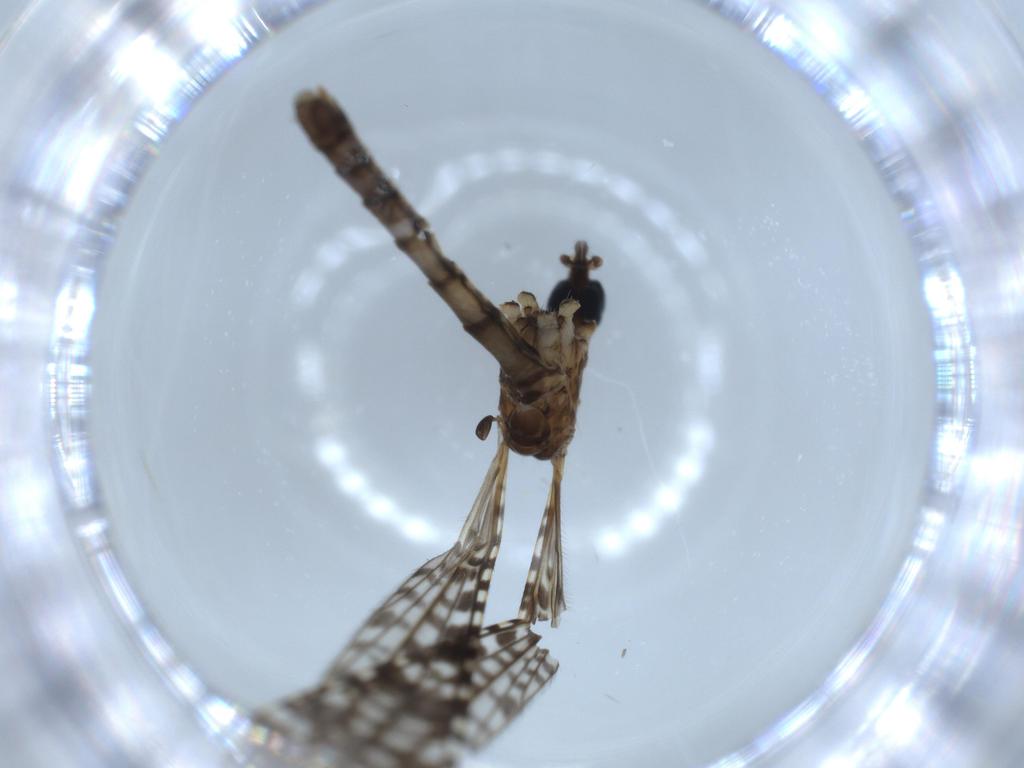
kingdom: Animalia
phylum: Arthropoda
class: Insecta
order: Diptera
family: Limoniidae
